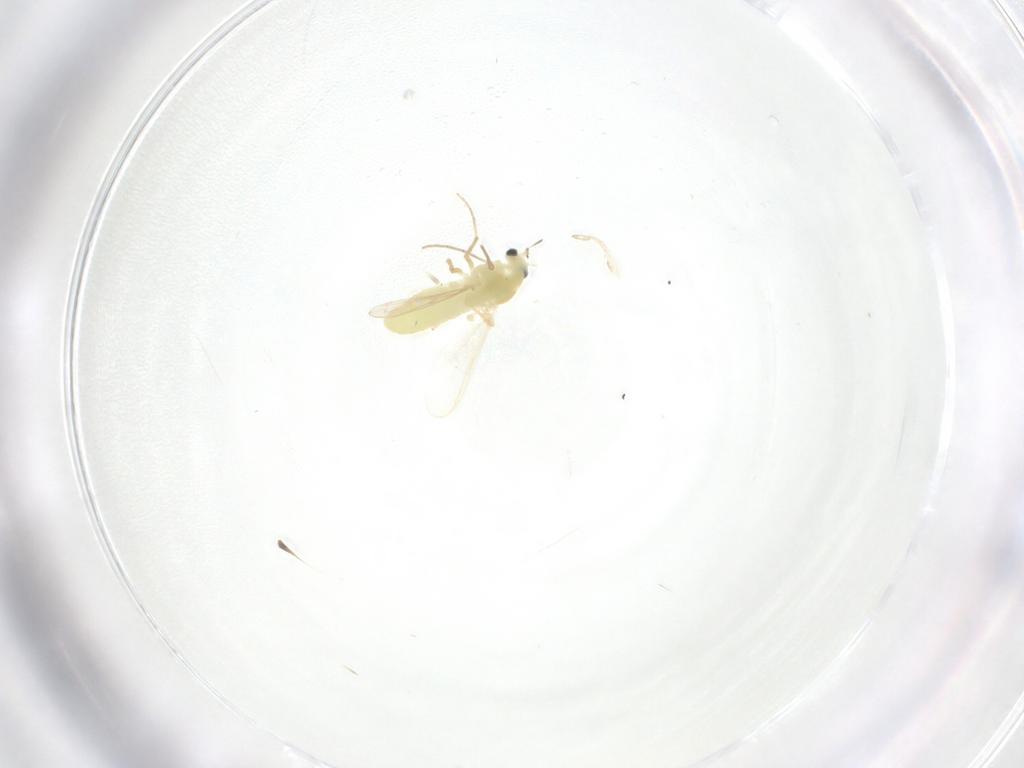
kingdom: Animalia
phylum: Arthropoda
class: Insecta
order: Diptera
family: Chironomidae
